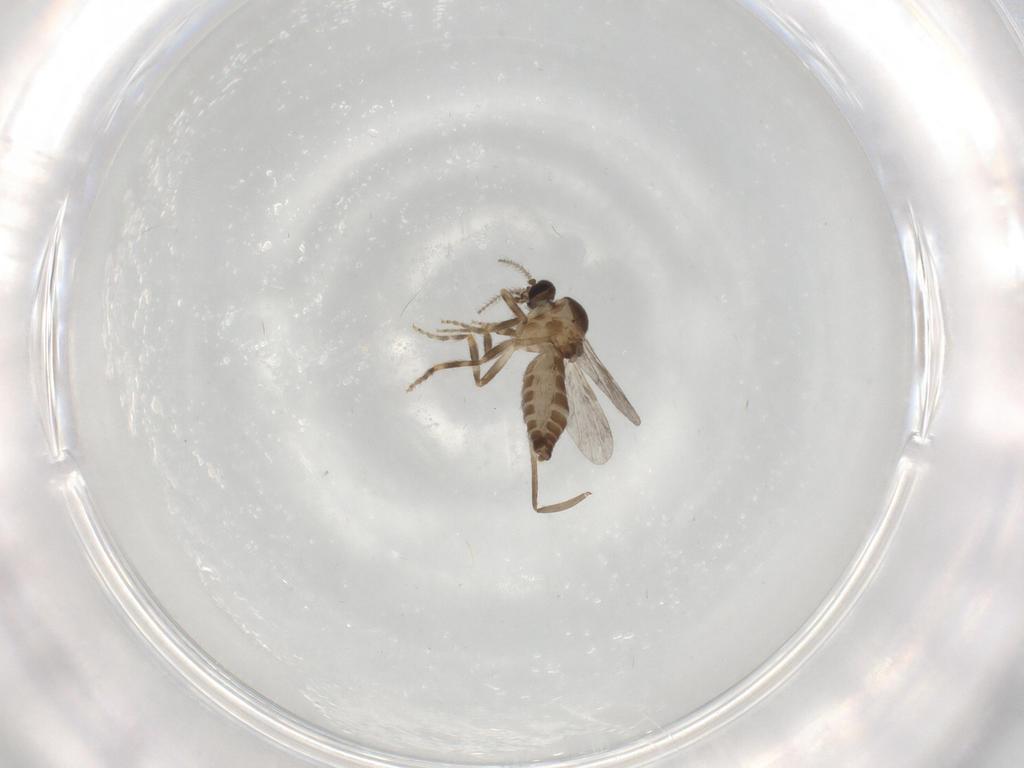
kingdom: Animalia
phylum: Arthropoda
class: Insecta
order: Diptera
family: Ceratopogonidae
